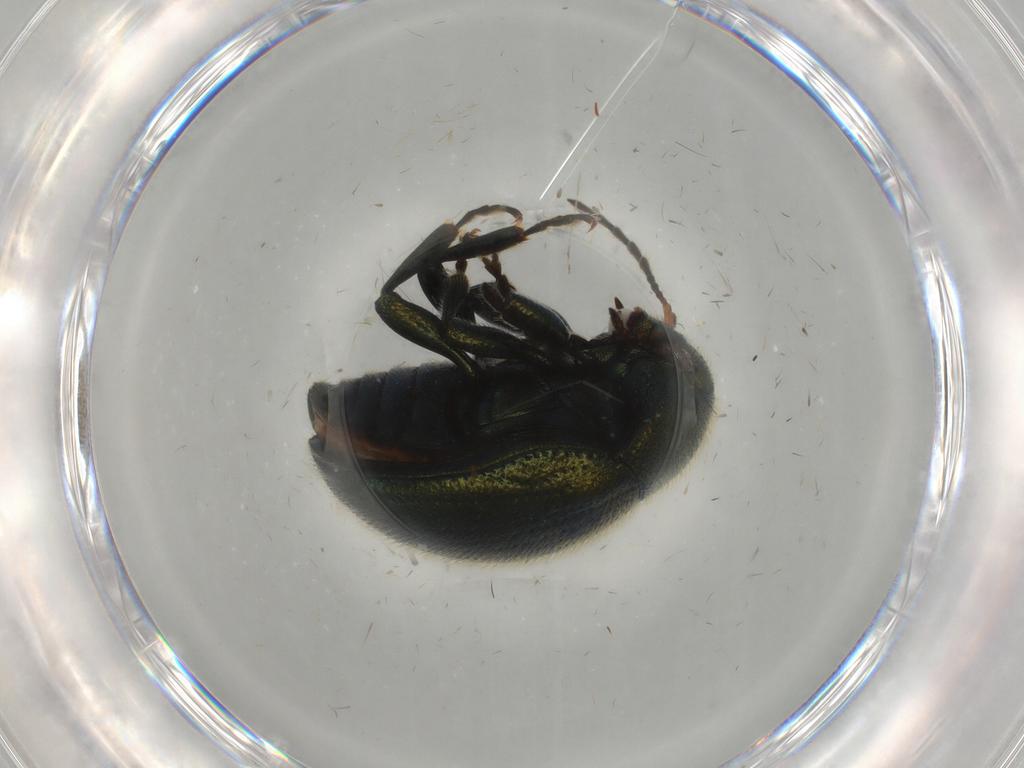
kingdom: Animalia
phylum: Arthropoda
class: Insecta
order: Coleoptera
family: Chrysomelidae
